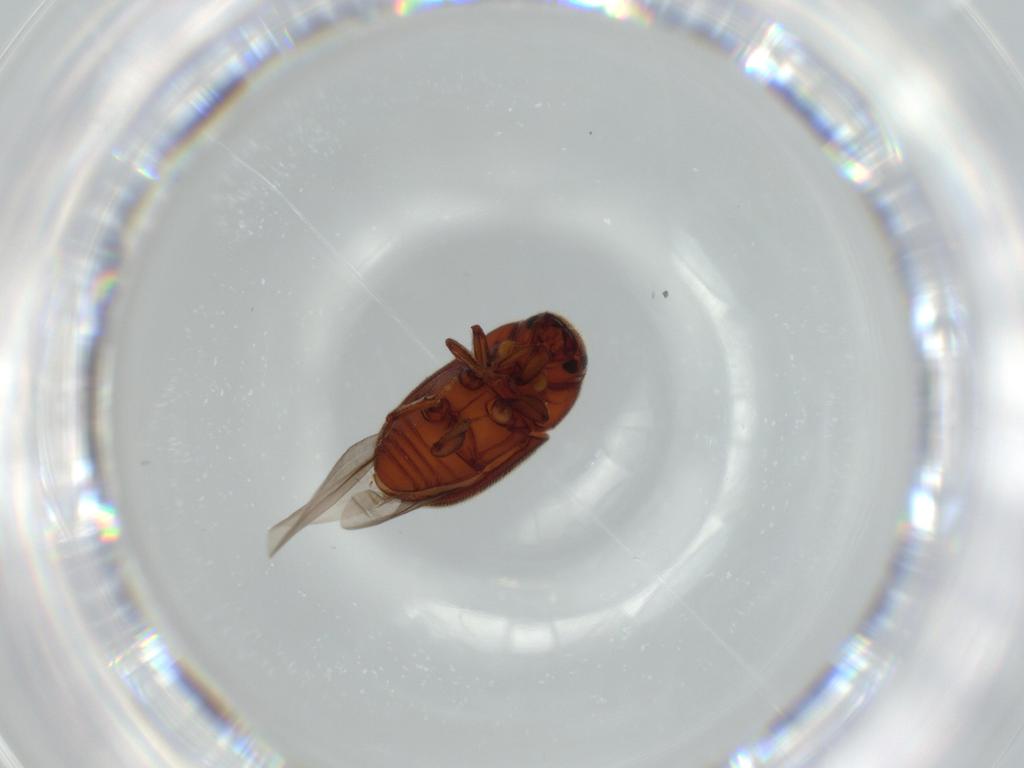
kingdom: Animalia
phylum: Arthropoda
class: Insecta
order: Coleoptera
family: Curculionidae
